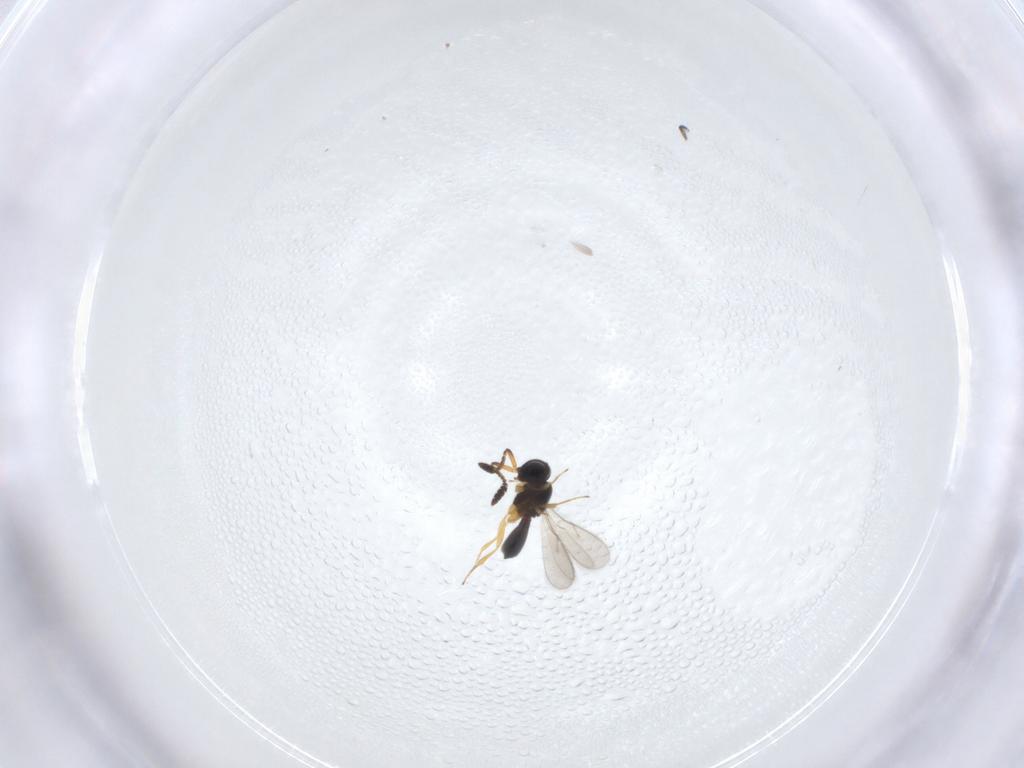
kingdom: Animalia
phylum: Arthropoda
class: Insecta
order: Hymenoptera
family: Scelionidae
